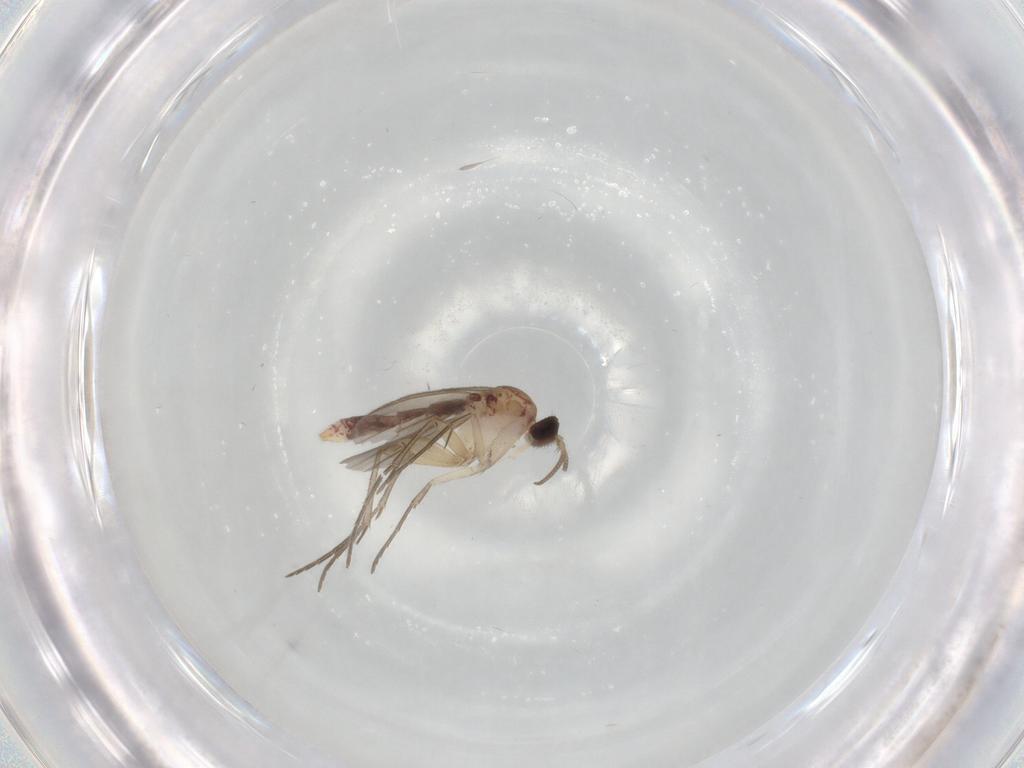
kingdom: Animalia
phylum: Arthropoda
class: Insecta
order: Diptera
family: Mycetophilidae
